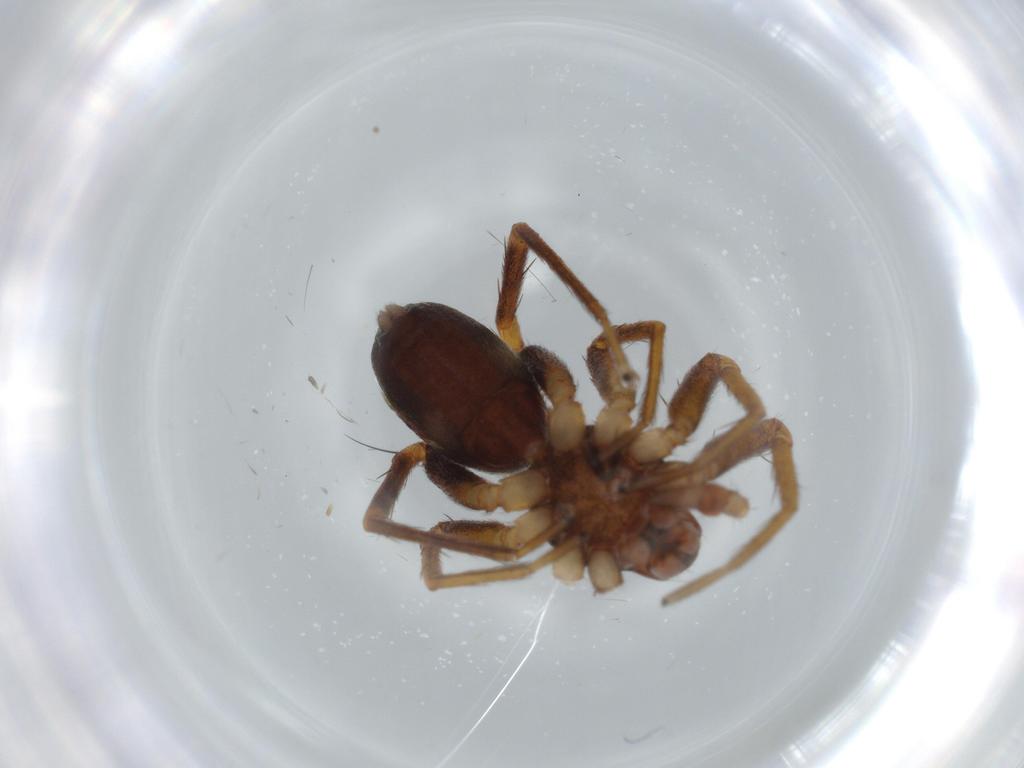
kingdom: Animalia
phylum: Arthropoda
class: Arachnida
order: Araneae
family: Corinnidae
